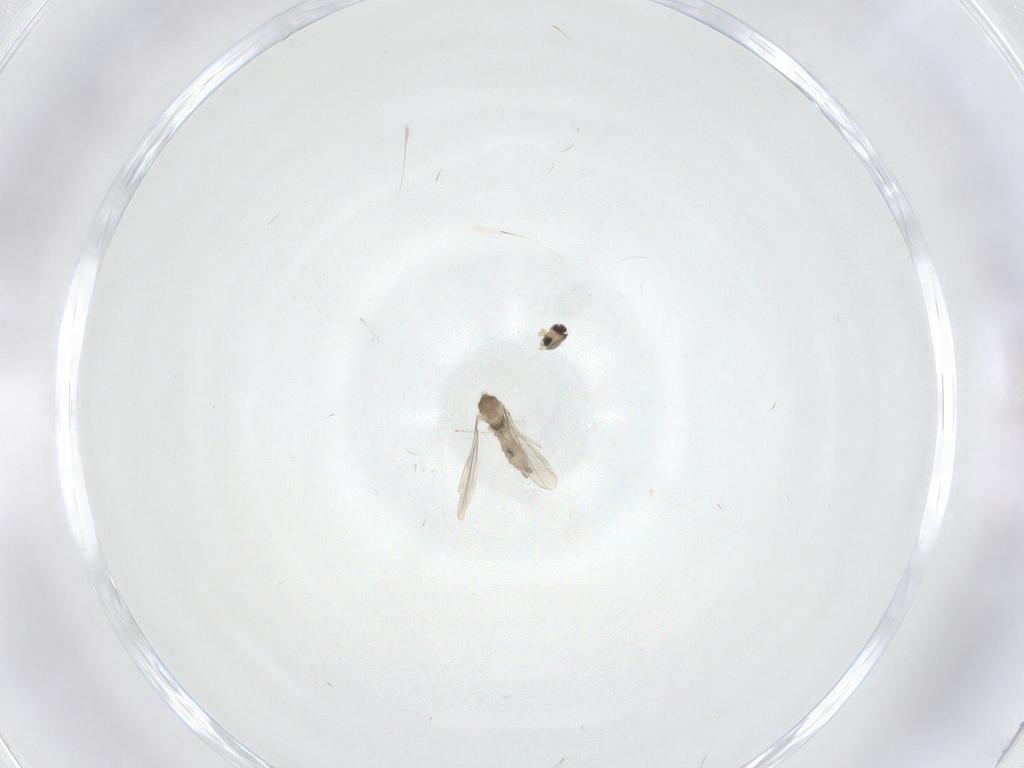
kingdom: Animalia
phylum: Arthropoda
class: Insecta
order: Diptera
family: Cecidomyiidae
